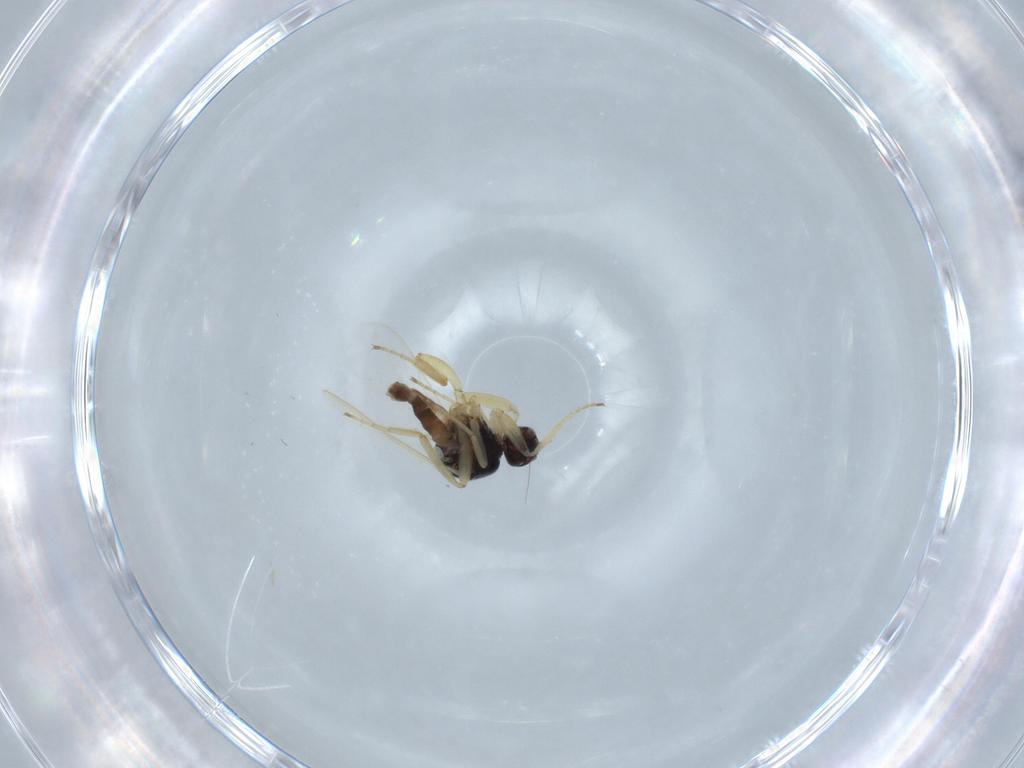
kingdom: Animalia
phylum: Arthropoda
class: Insecta
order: Diptera
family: Hybotidae
